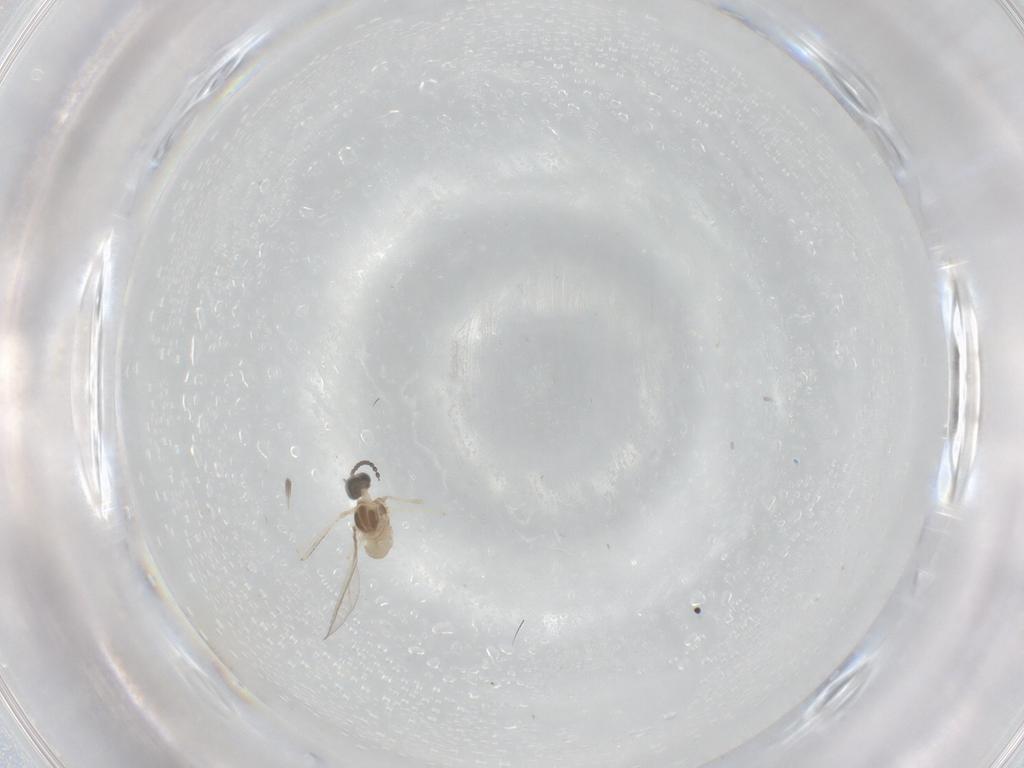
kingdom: Animalia
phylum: Arthropoda
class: Insecta
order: Diptera
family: Cecidomyiidae
